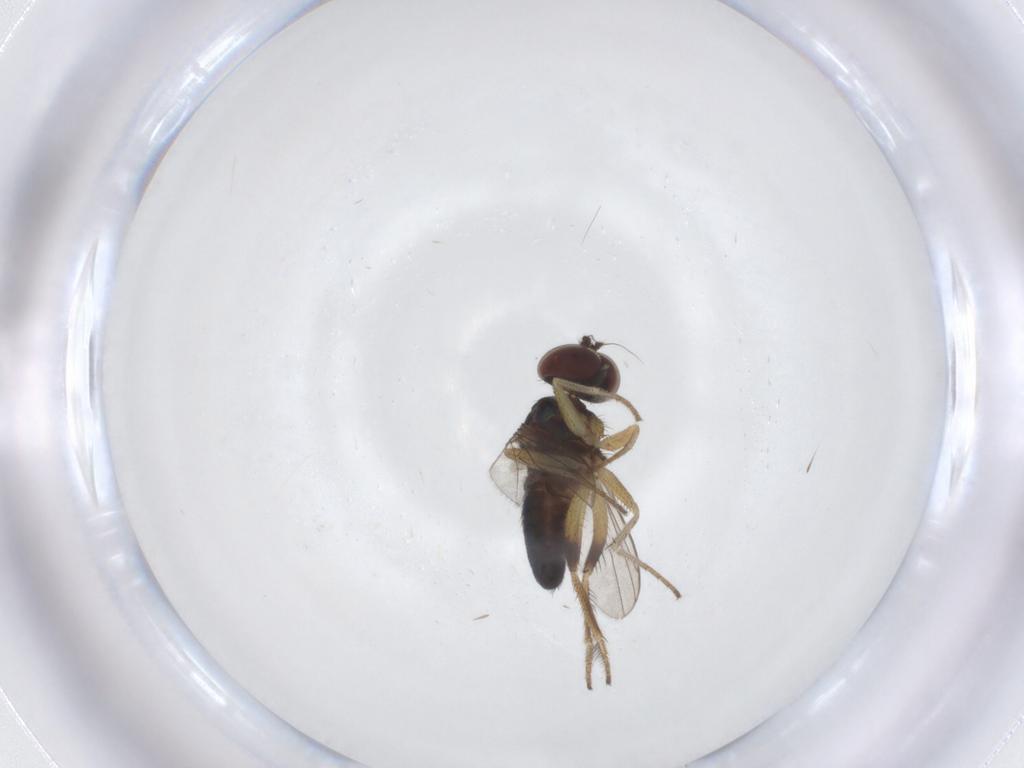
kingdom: Animalia
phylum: Arthropoda
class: Insecta
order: Diptera
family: Dolichopodidae
